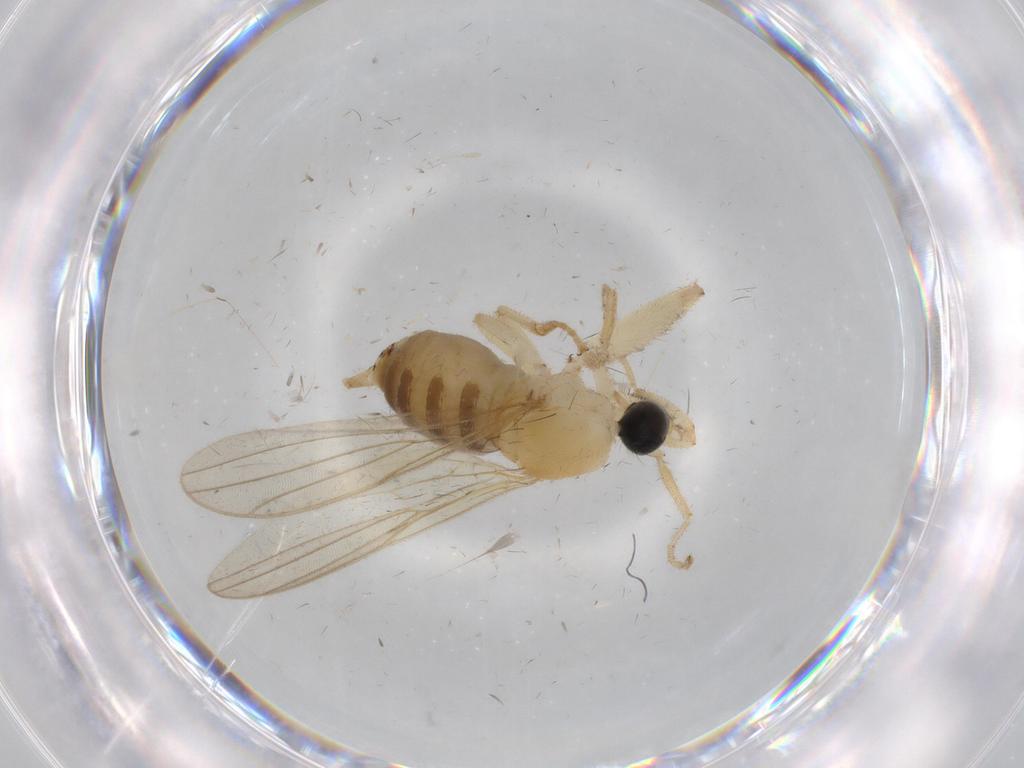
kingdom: Animalia
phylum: Arthropoda
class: Insecta
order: Diptera
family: Hybotidae
